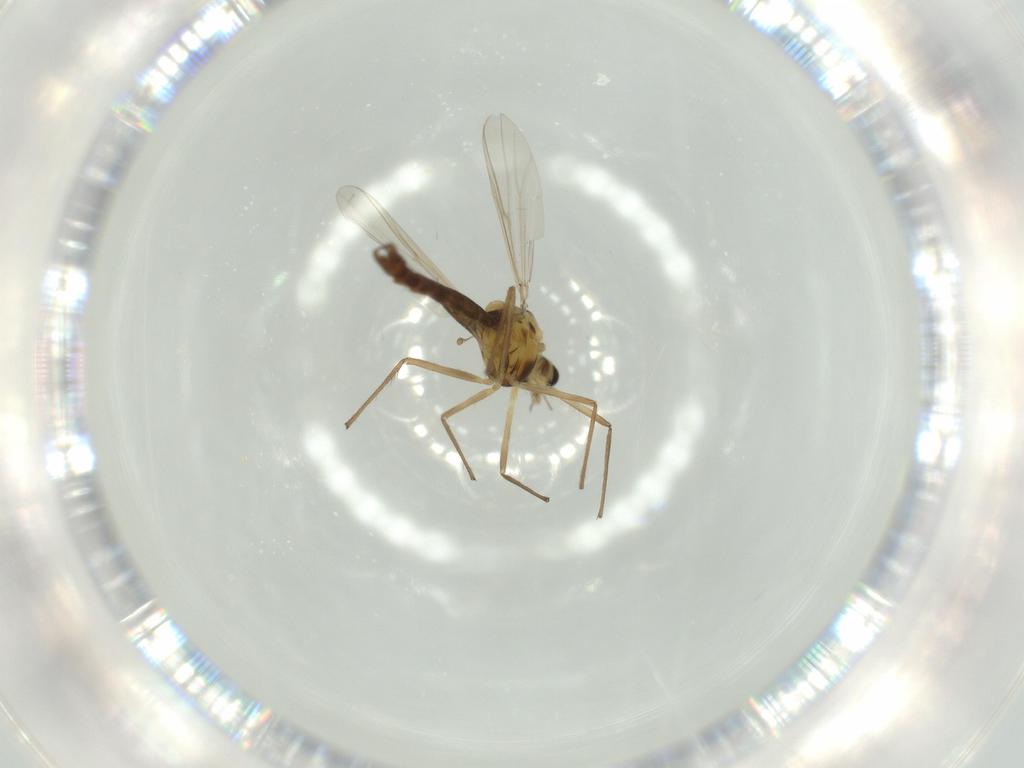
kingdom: Animalia
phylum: Arthropoda
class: Insecta
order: Diptera
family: Chironomidae
